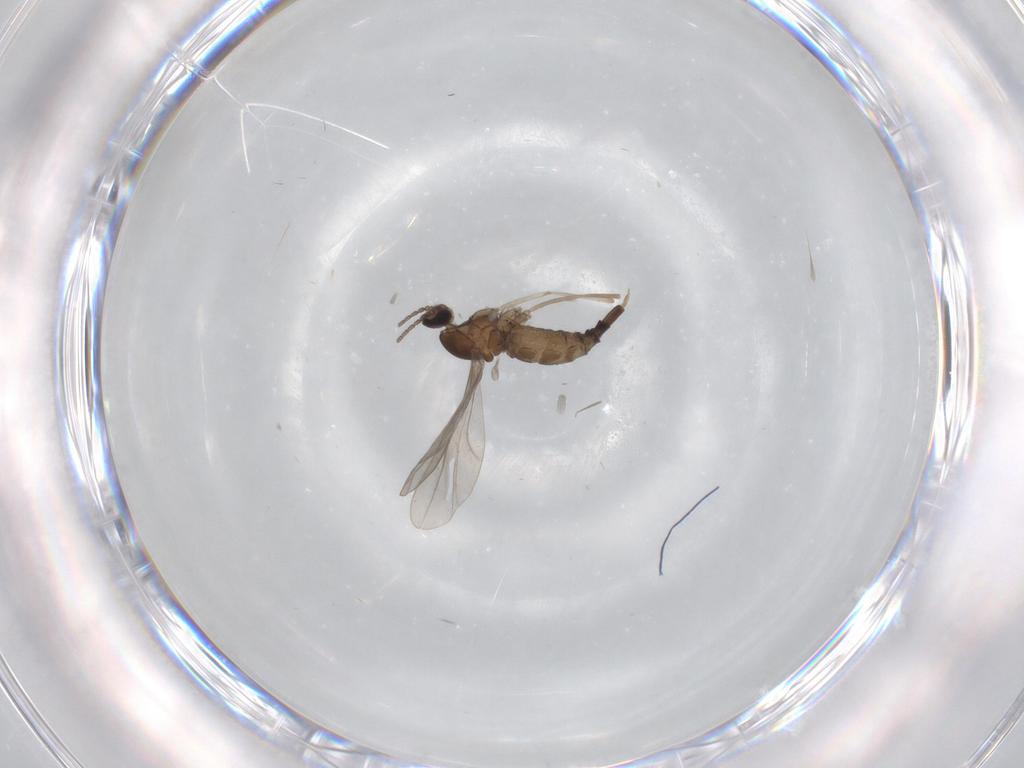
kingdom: Animalia
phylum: Arthropoda
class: Insecta
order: Diptera
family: Cecidomyiidae
